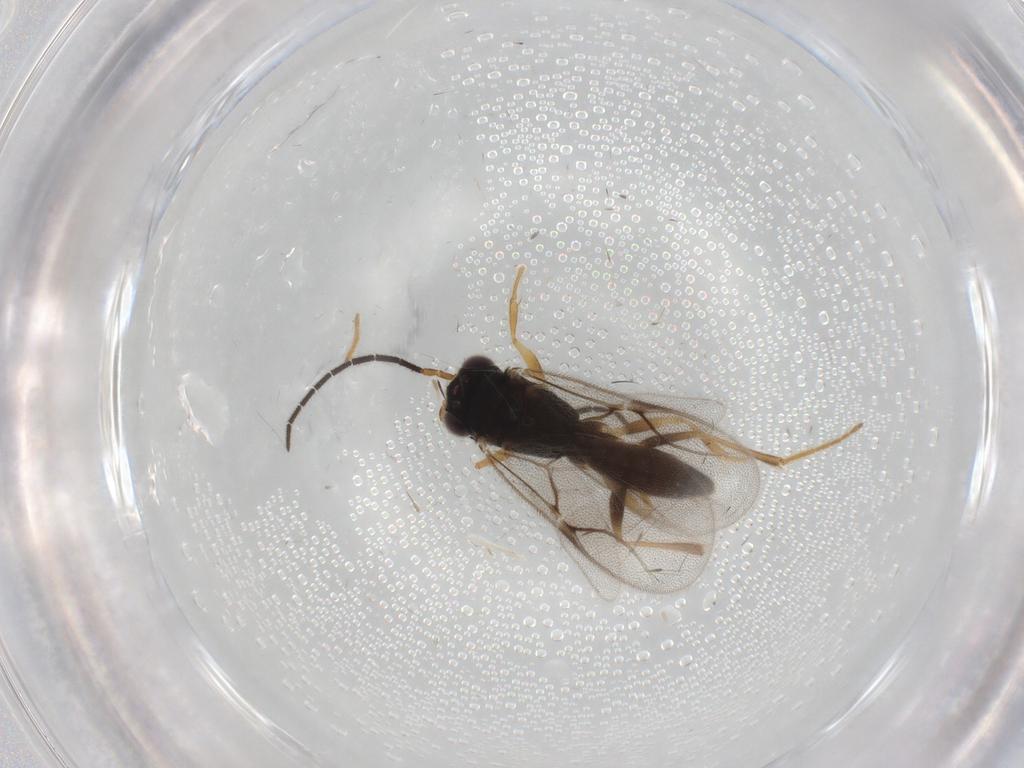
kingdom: Animalia
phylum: Arthropoda
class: Insecta
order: Hymenoptera
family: Dryinidae
